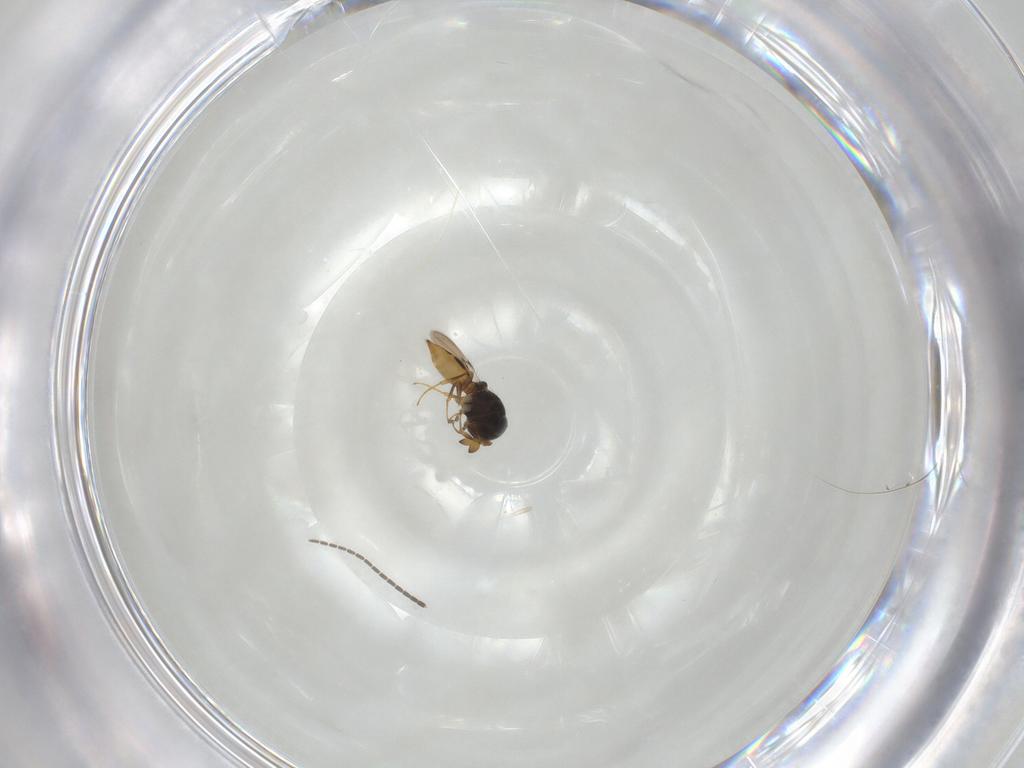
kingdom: Animalia
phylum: Arthropoda
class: Insecta
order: Hymenoptera
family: Scelionidae
